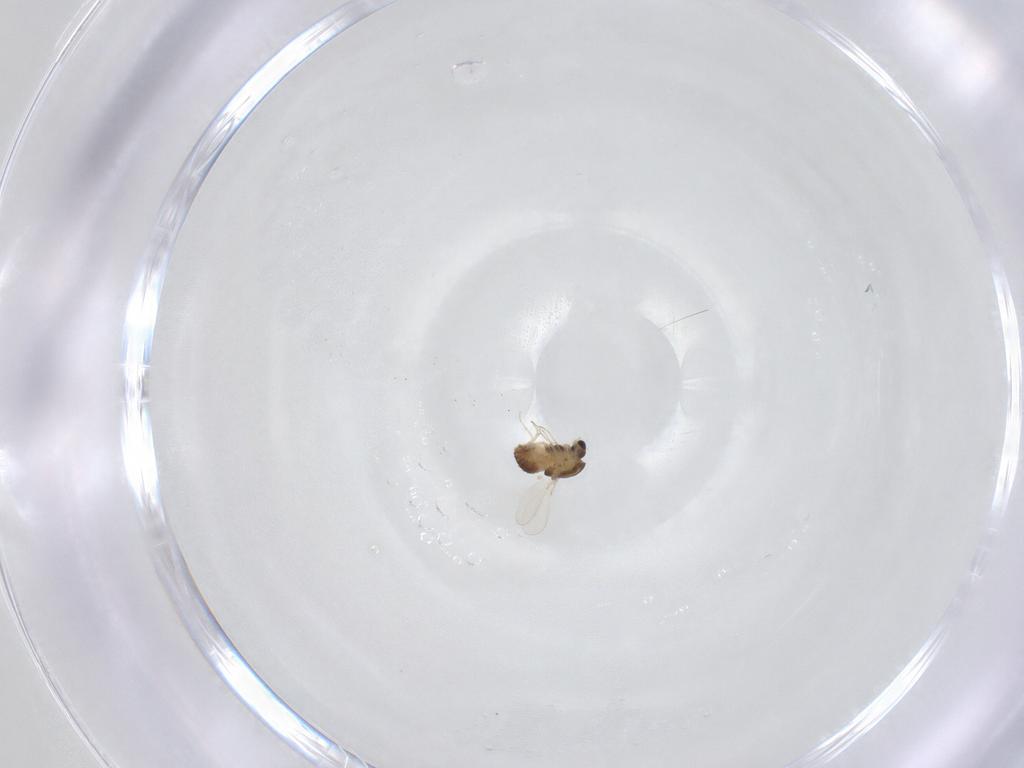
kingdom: Animalia
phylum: Arthropoda
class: Insecta
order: Diptera
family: Chironomidae
